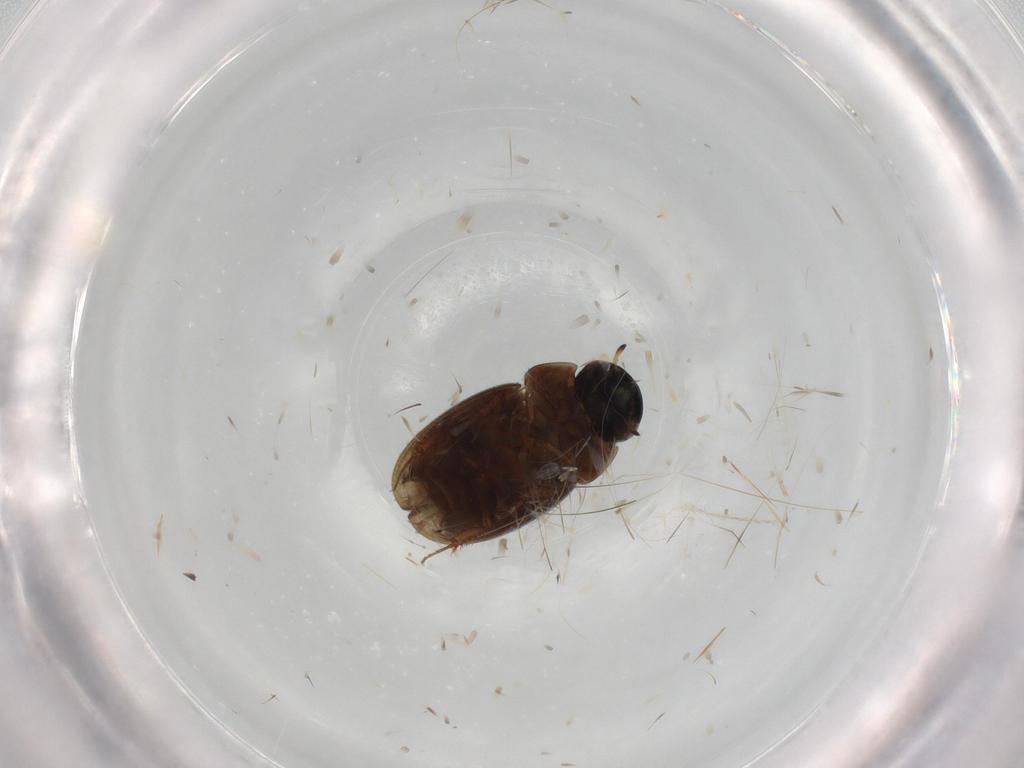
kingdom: Animalia
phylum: Arthropoda
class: Insecta
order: Coleoptera
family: Hydrophilidae
